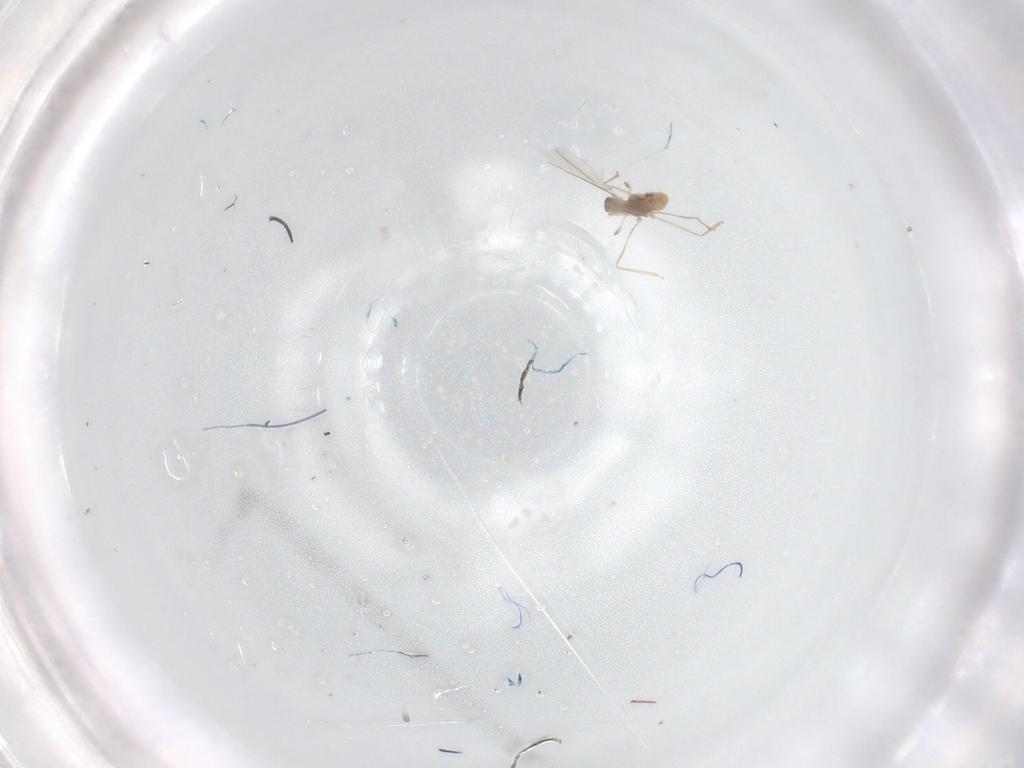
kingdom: Animalia
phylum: Arthropoda
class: Insecta
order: Diptera
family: Cecidomyiidae
